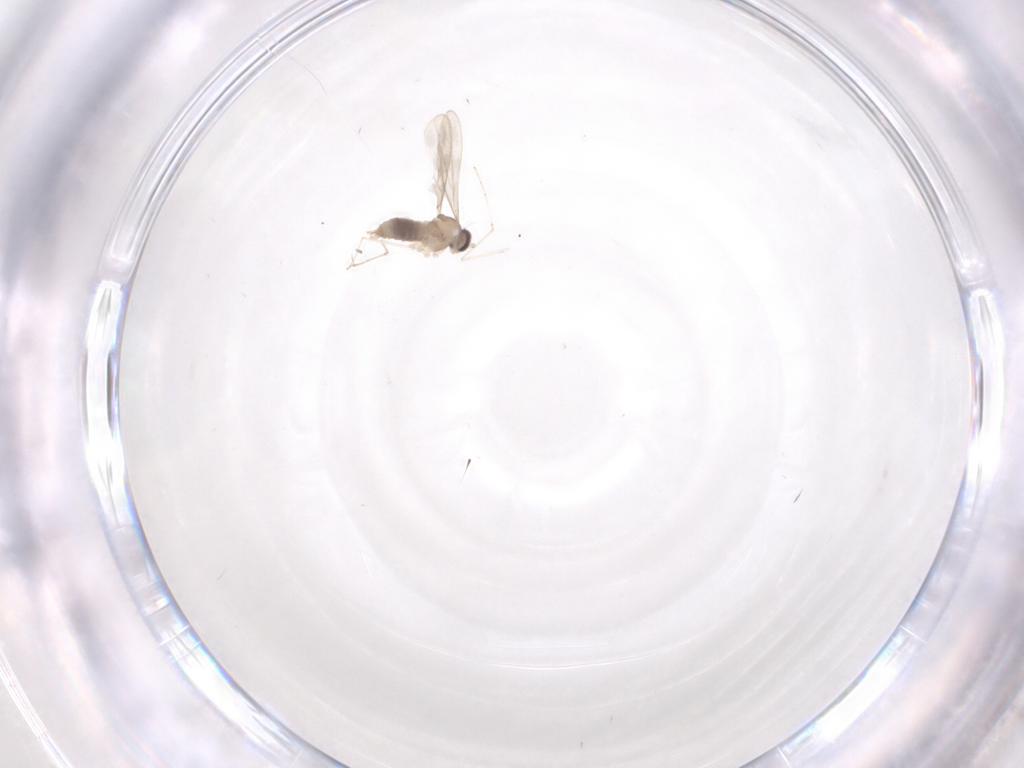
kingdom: Animalia
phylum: Arthropoda
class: Insecta
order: Diptera
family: Cecidomyiidae
